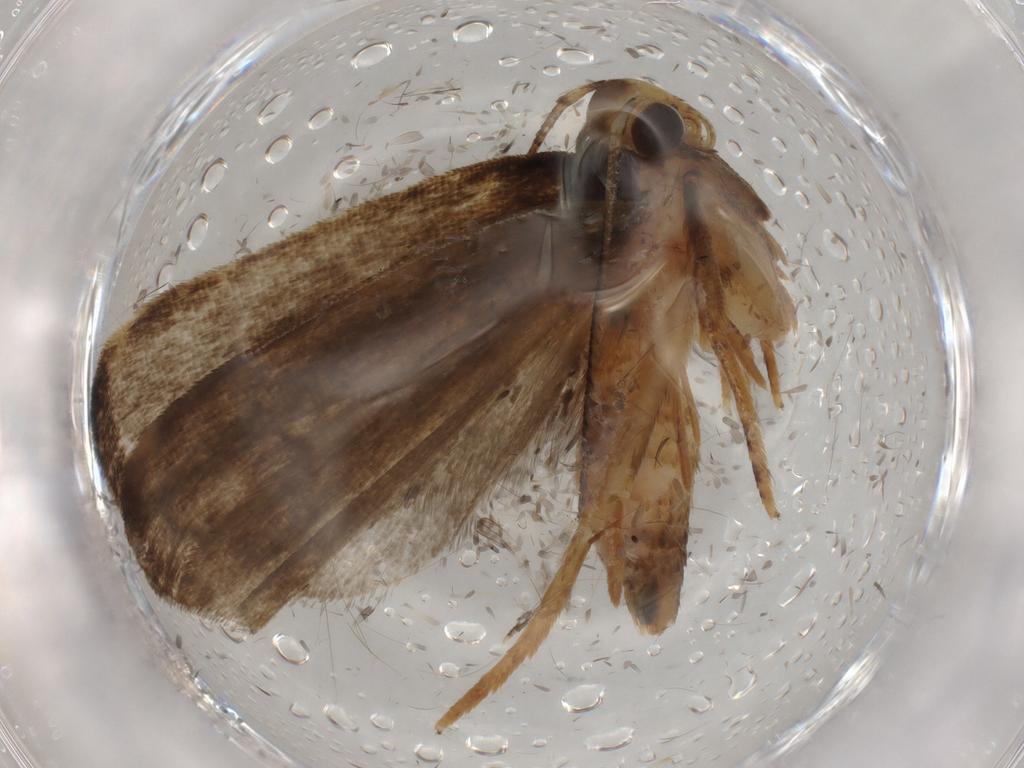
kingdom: Animalia
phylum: Arthropoda
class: Insecta
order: Lepidoptera
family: Gelechiidae
